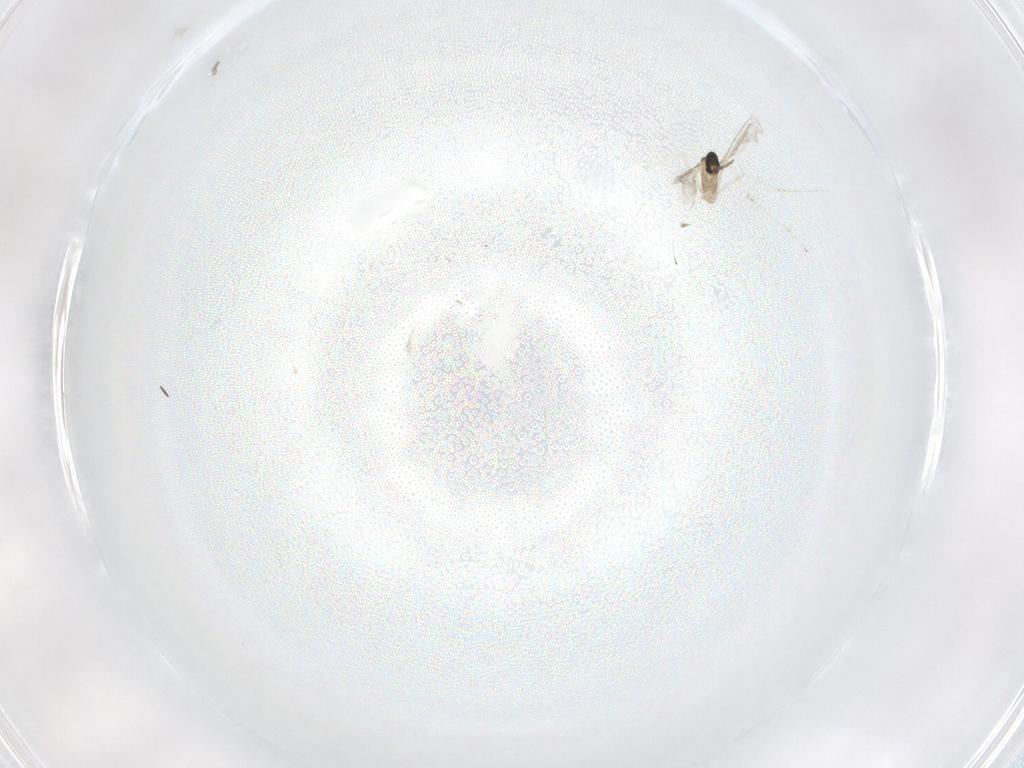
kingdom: Animalia
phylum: Arthropoda
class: Insecta
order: Diptera
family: Cecidomyiidae
